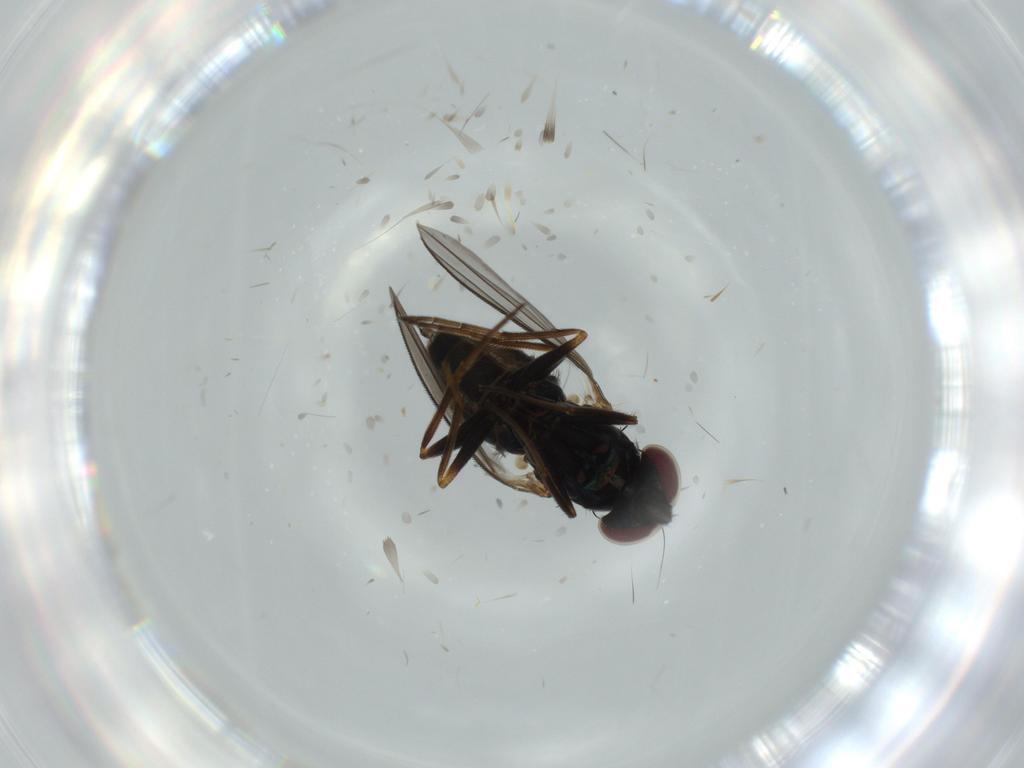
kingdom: Animalia
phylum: Arthropoda
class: Insecta
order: Diptera
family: Dolichopodidae
